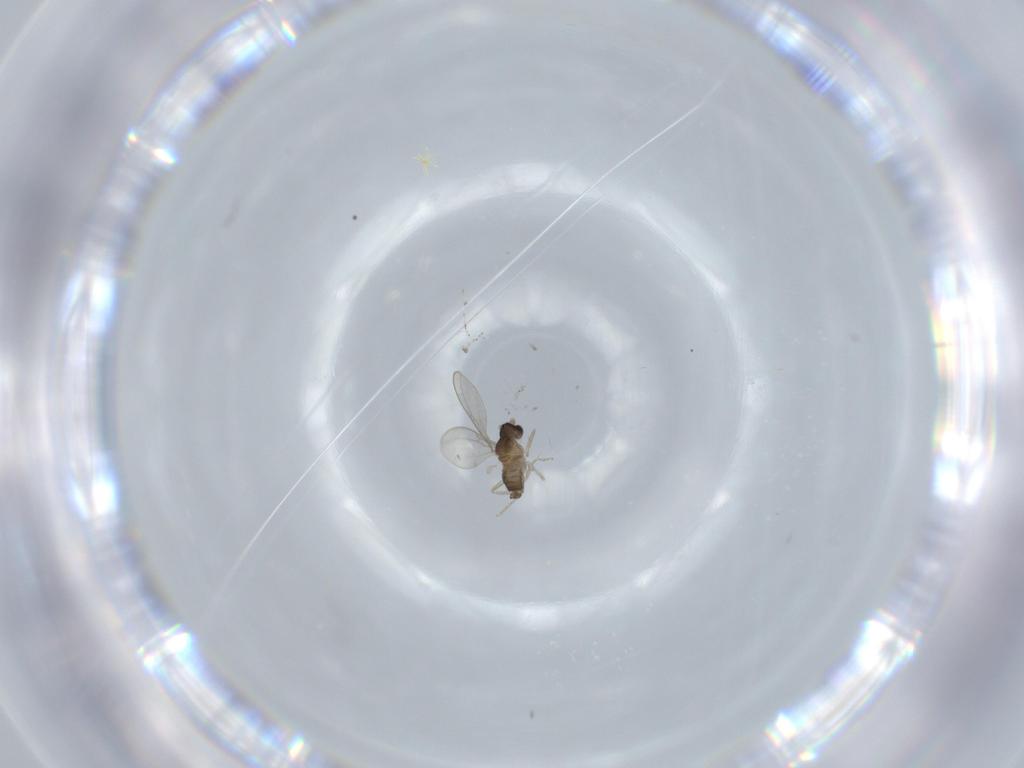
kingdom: Animalia
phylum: Arthropoda
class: Insecta
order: Diptera
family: Cecidomyiidae
